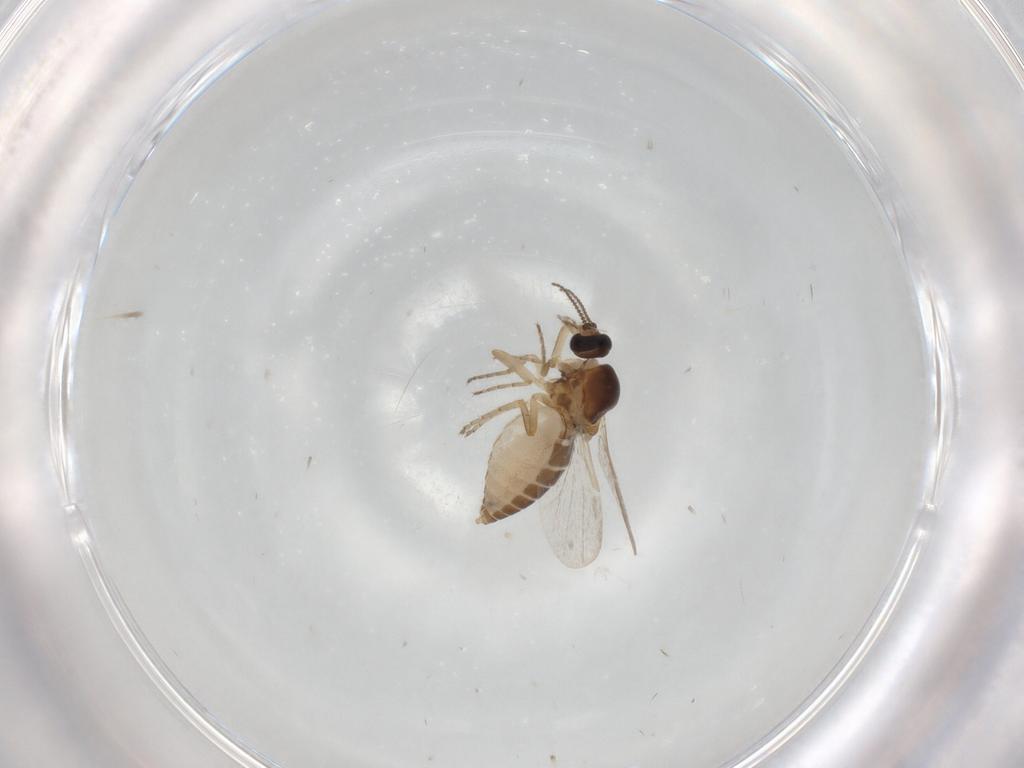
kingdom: Animalia
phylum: Arthropoda
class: Insecta
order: Diptera
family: Ceratopogonidae
